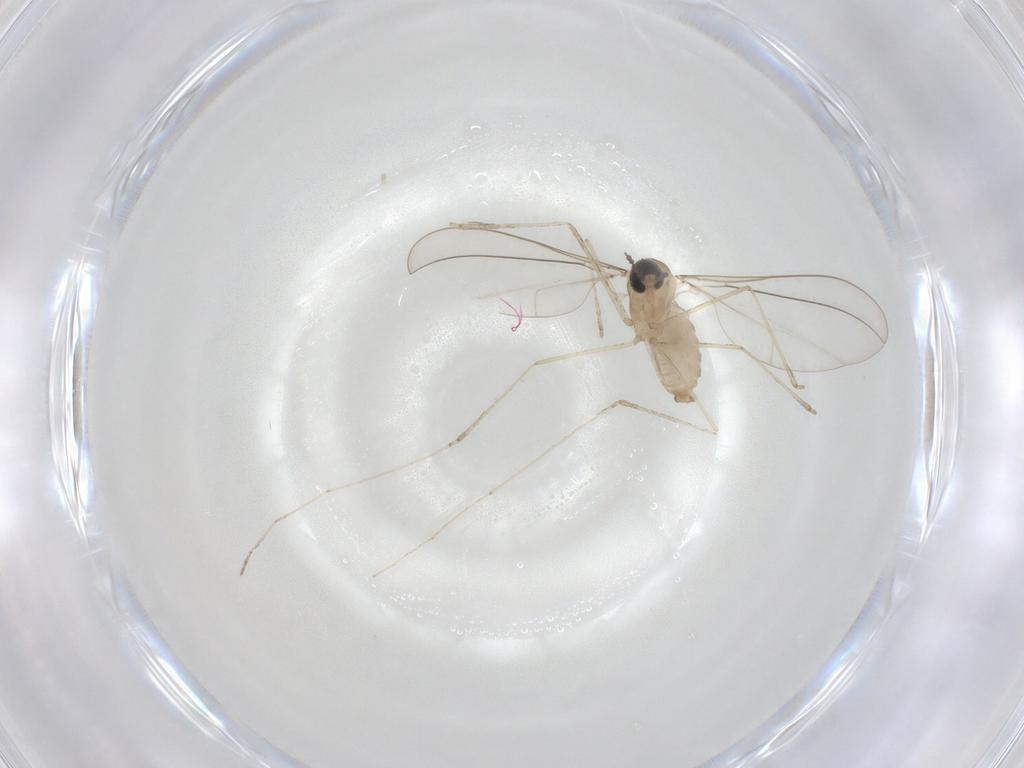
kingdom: Animalia
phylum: Arthropoda
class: Insecta
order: Diptera
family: Cecidomyiidae
